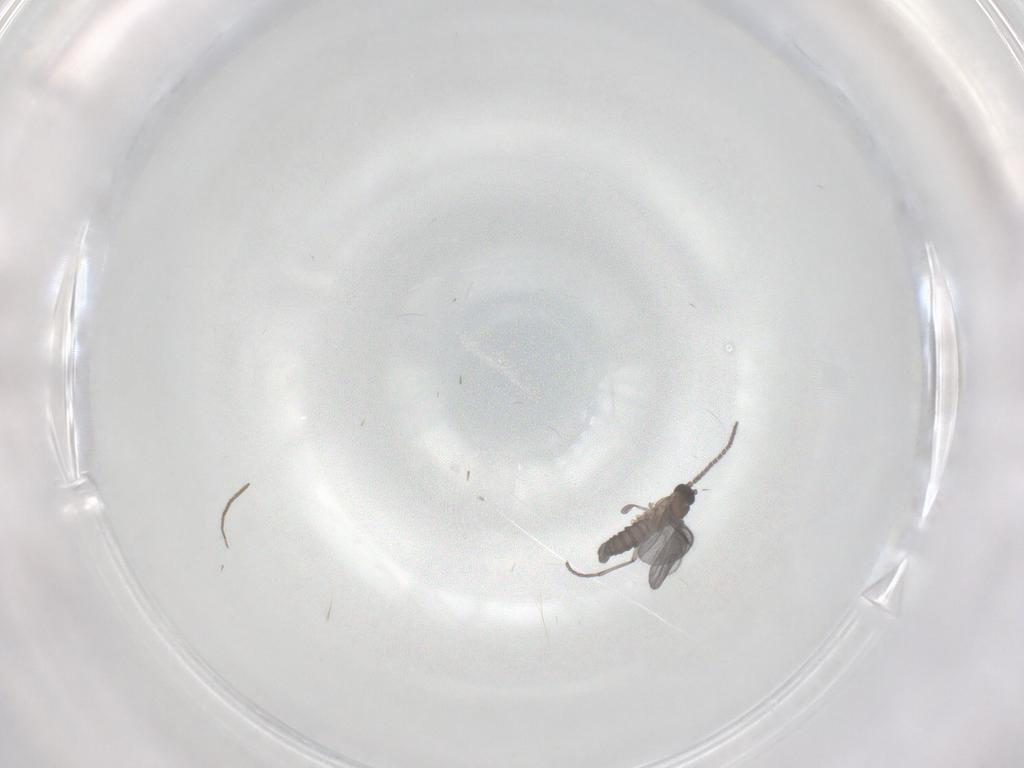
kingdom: Animalia
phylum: Arthropoda
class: Insecta
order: Diptera
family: Sciaridae
